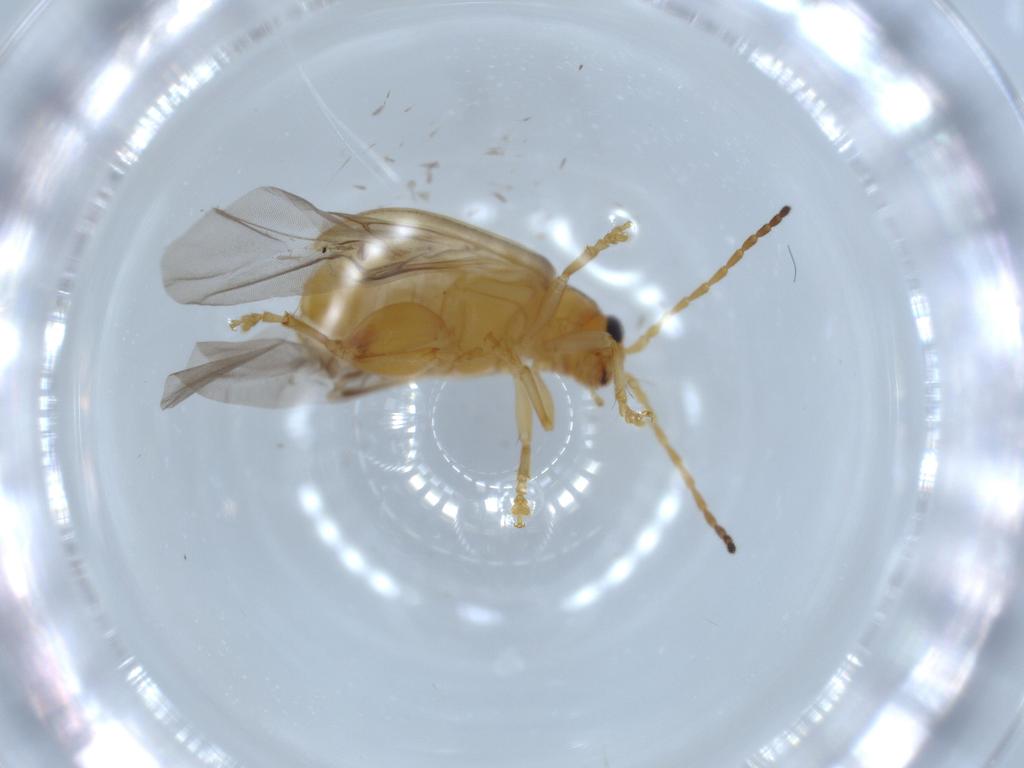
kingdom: Animalia
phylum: Arthropoda
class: Insecta
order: Coleoptera
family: Chrysomelidae
